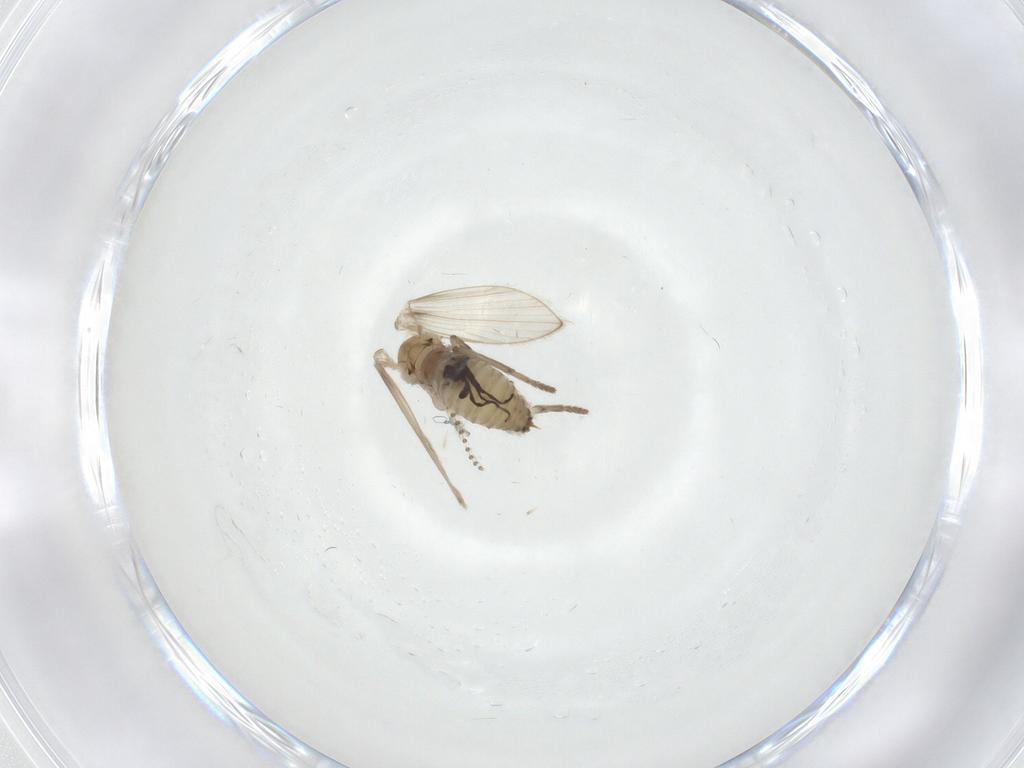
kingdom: Animalia
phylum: Arthropoda
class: Insecta
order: Diptera
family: Psychodidae
